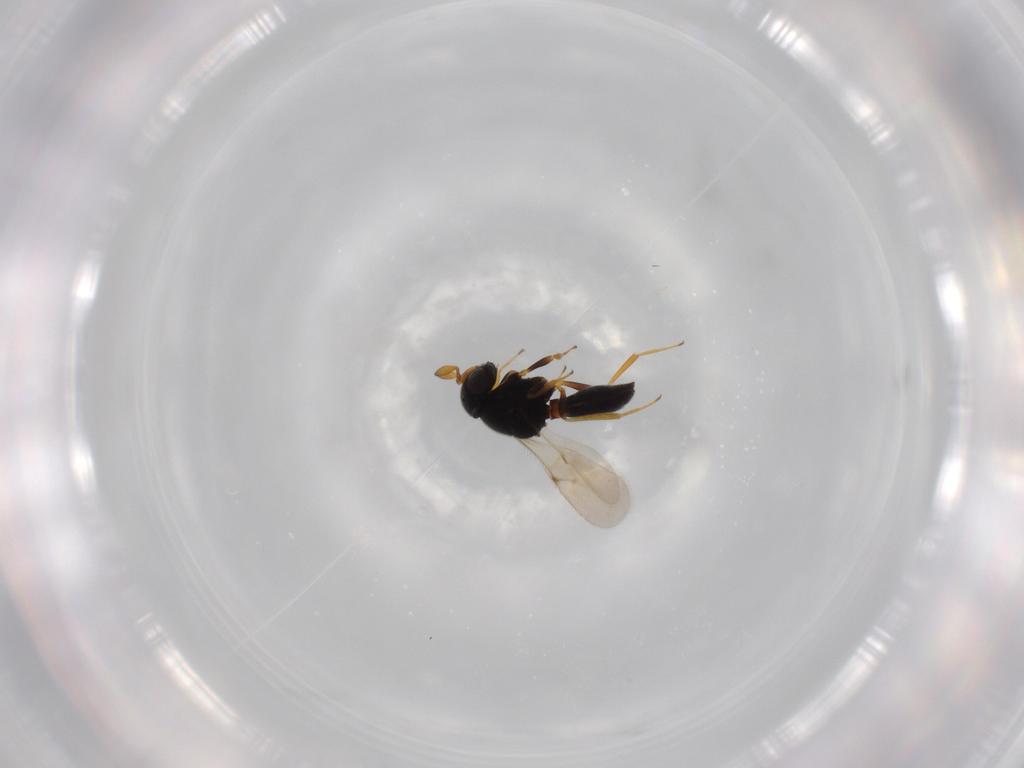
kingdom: Animalia
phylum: Arthropoda
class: Insecta
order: Hymenoptera
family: Scelionidae
